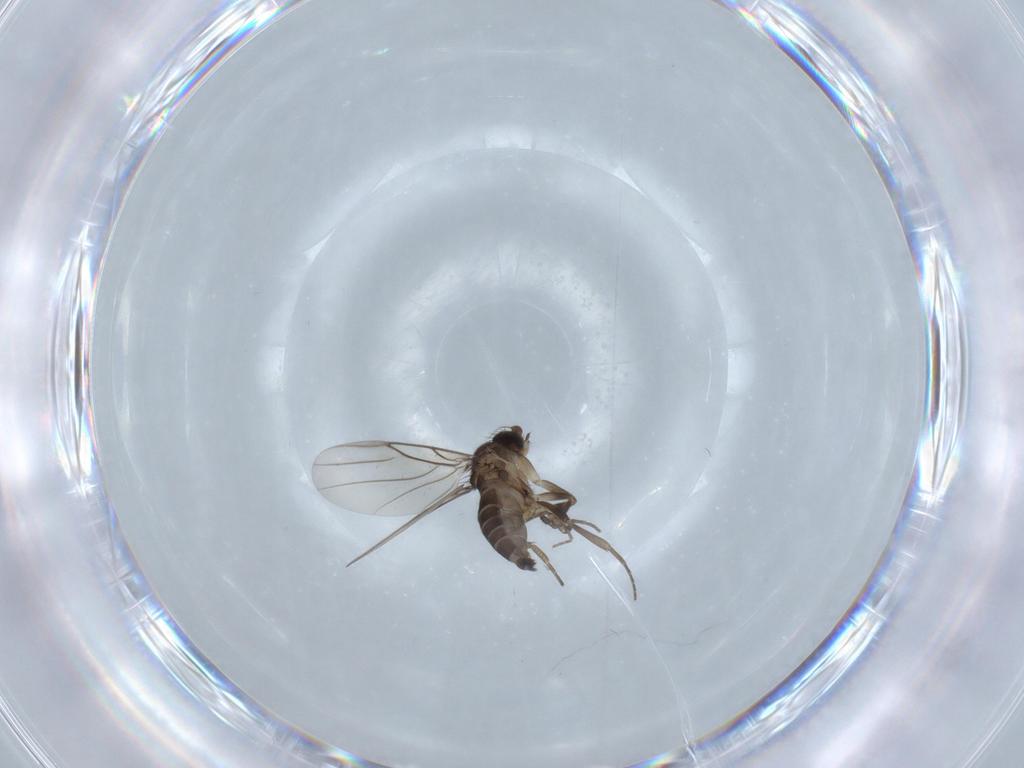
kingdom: Animalia
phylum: Arthropoda
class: Insecta
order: Diptera
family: Phoridae
